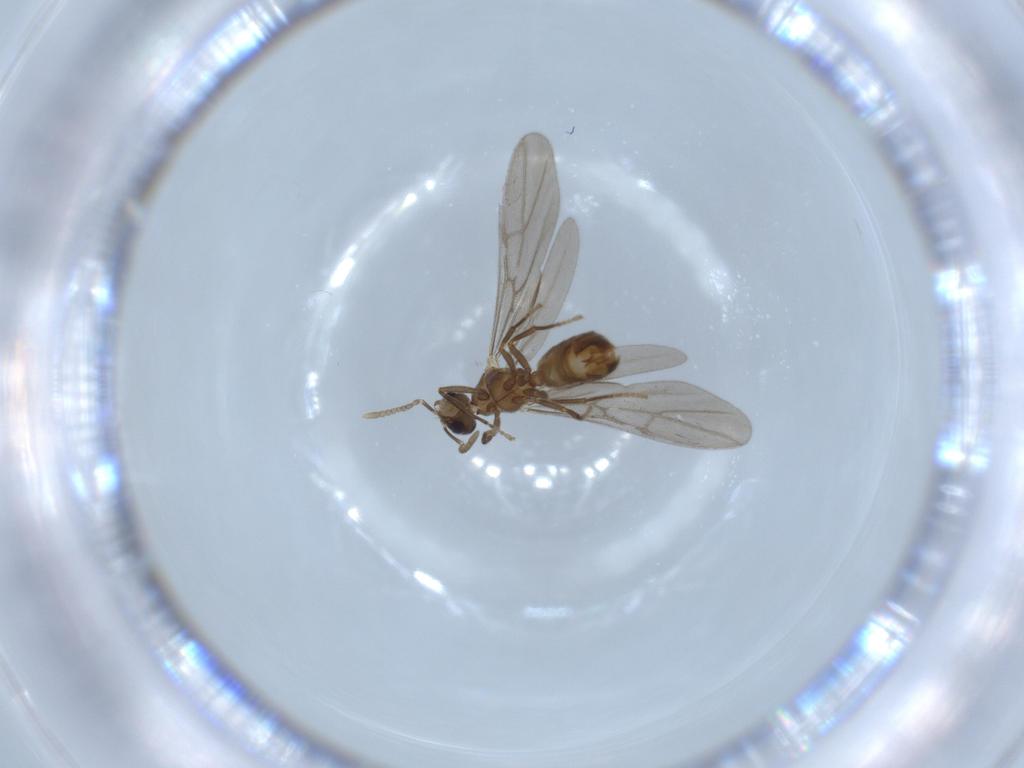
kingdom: Animalia
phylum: Arthropoda
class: Insecta
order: Hymenoptera
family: Formicidae
